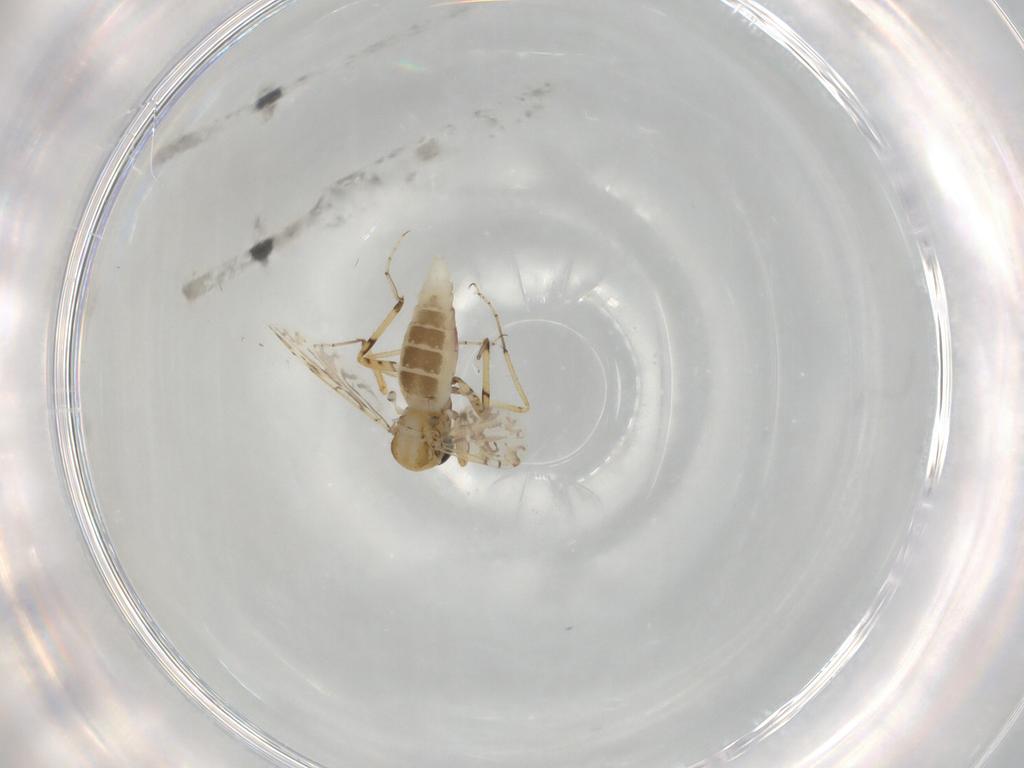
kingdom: Animalia
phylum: Arthropoda
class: Insecta
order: Diptera
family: Ceratopogonidae
